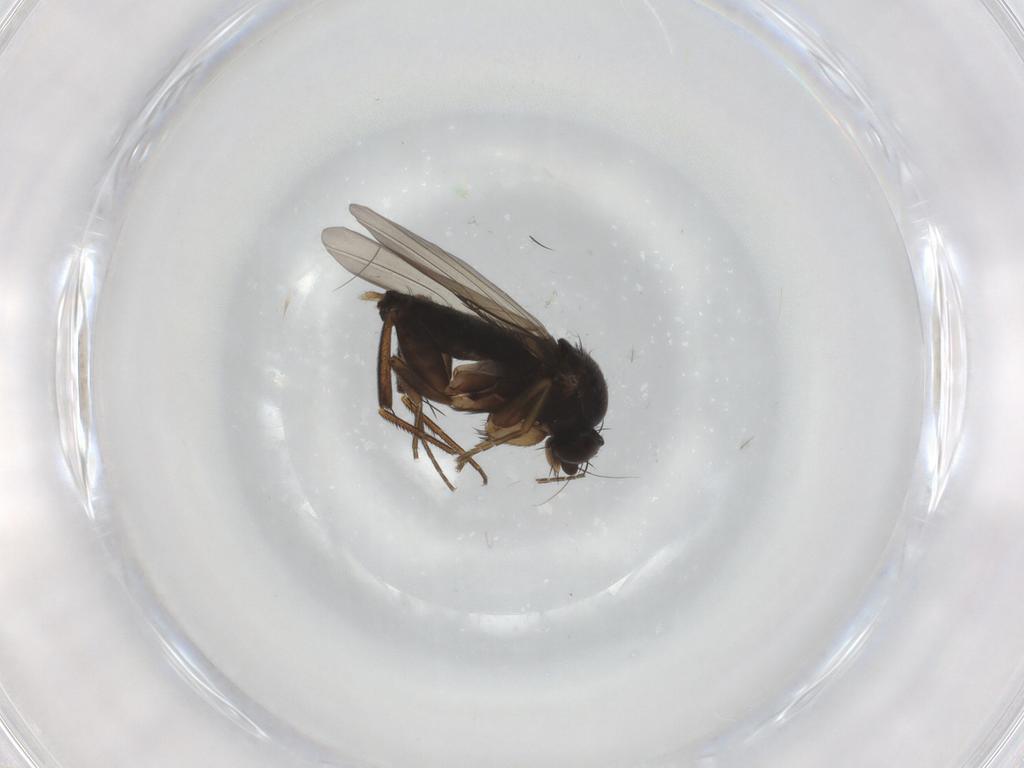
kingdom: Animalia
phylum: Arthropoda
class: Insecta
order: Diptera
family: Phoridae
